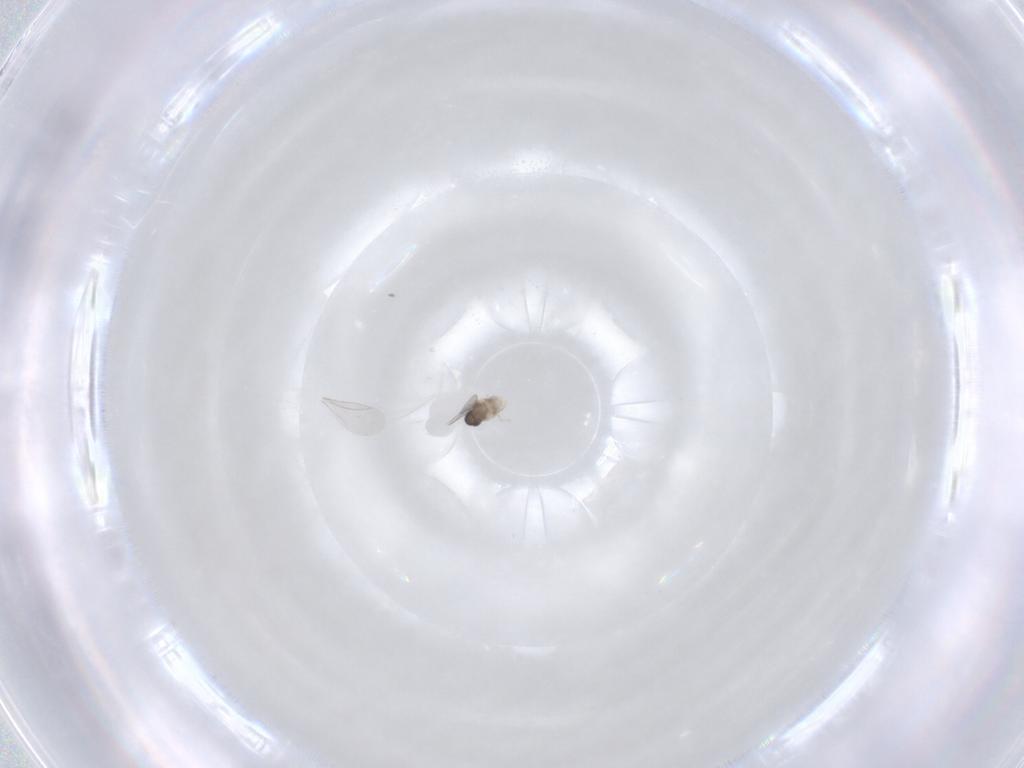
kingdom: Animalia
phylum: Arthropoda
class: Insecta
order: Diptera
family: Cecidomyiidae
